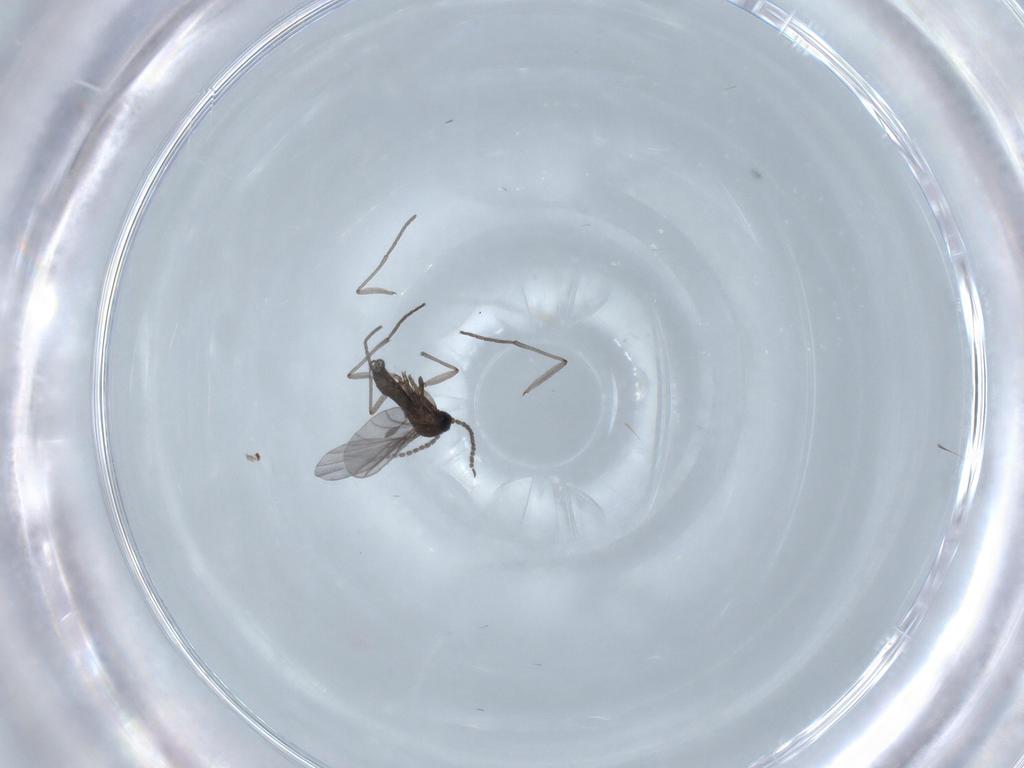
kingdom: Animalia
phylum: Arthropoda
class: Insecta
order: Diptera
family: Sciaridae
